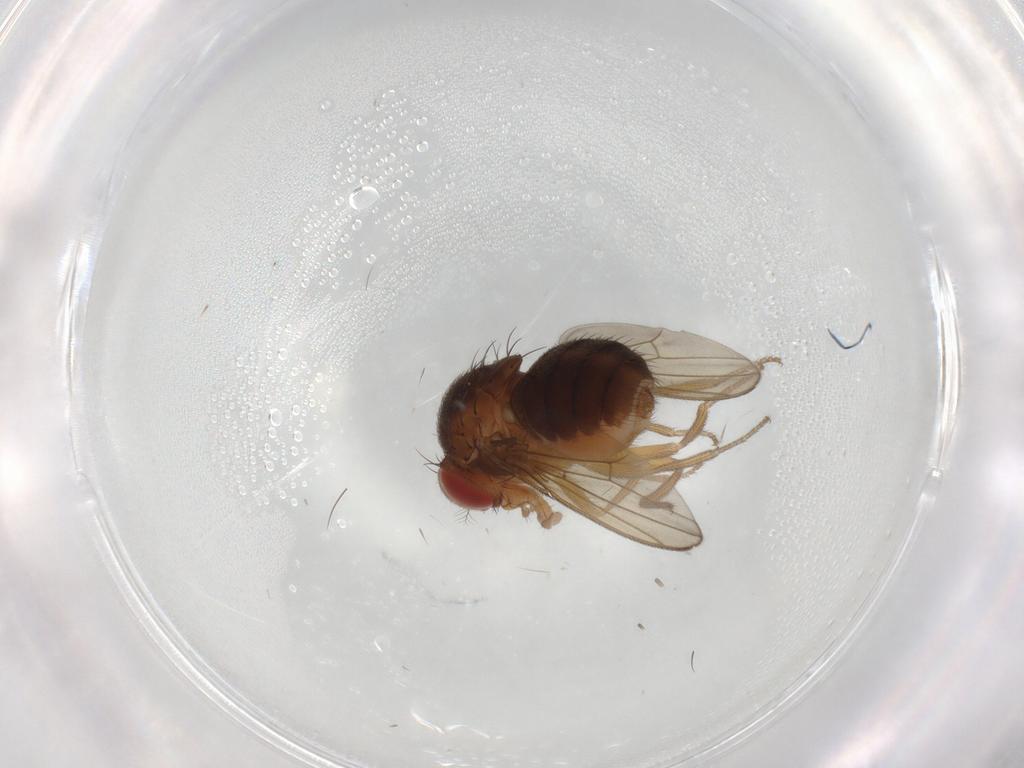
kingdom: Animalia
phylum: Arthropoda
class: Insecta
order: Diptera
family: Drosophilidae
